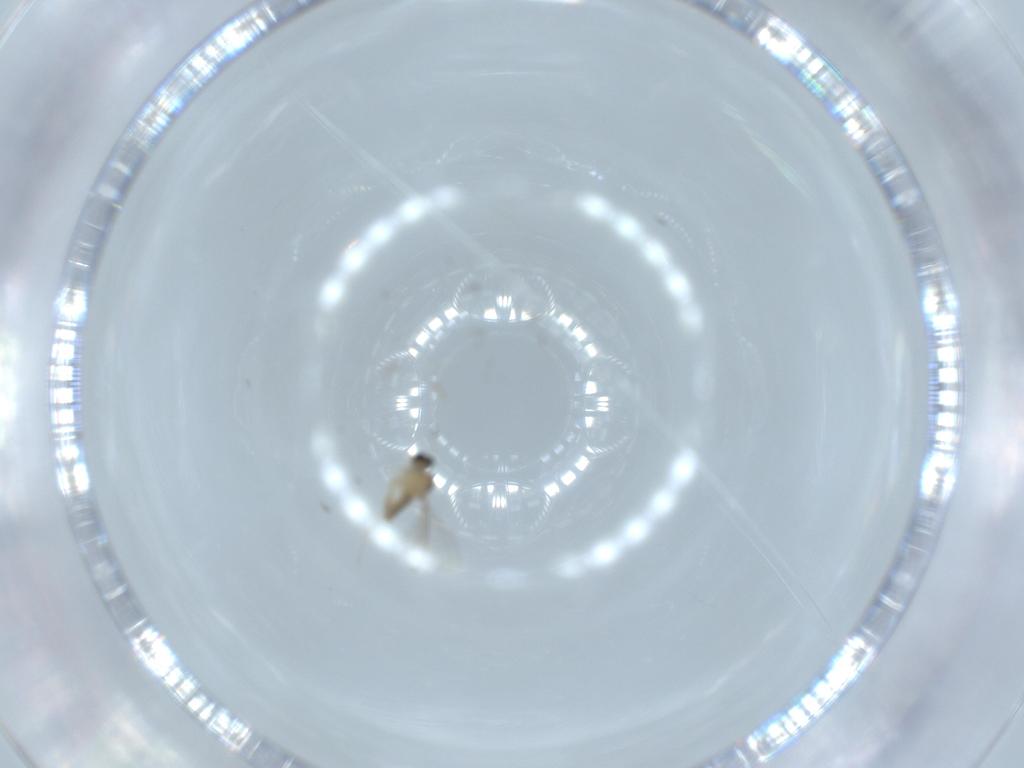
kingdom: Animalia
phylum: Arthropoda
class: Insecta
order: Diptera
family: Cecidomyiidae
